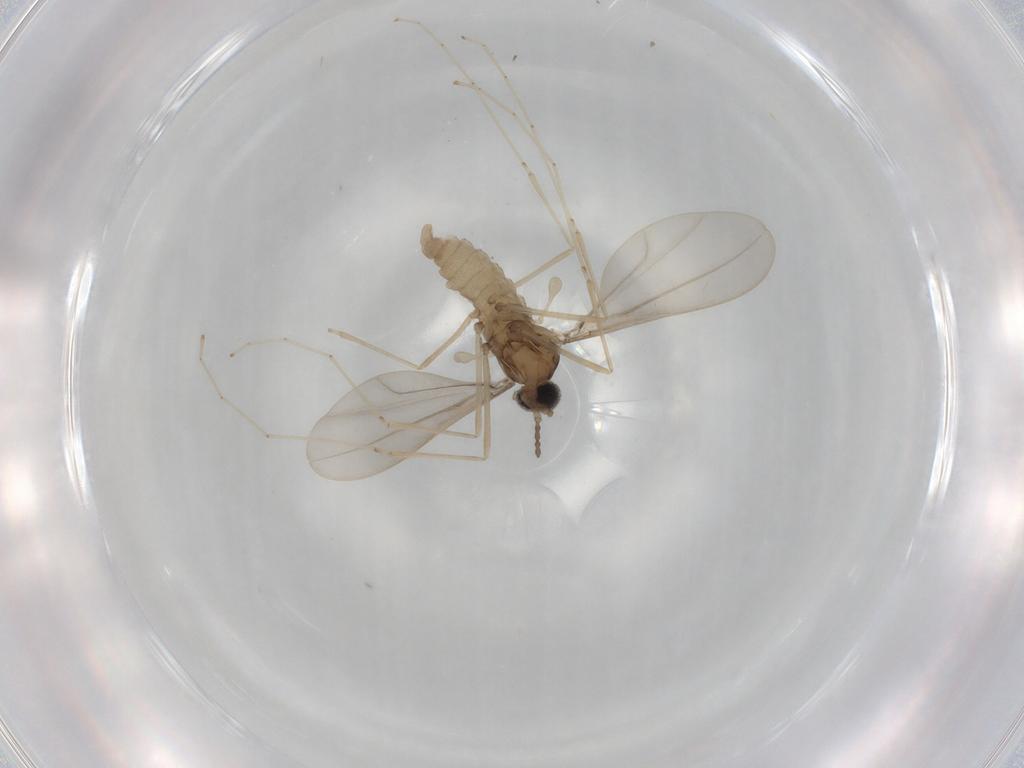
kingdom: Animalia
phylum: Arthropoda
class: Insecta
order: Diptera
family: Cecidomyiidae
